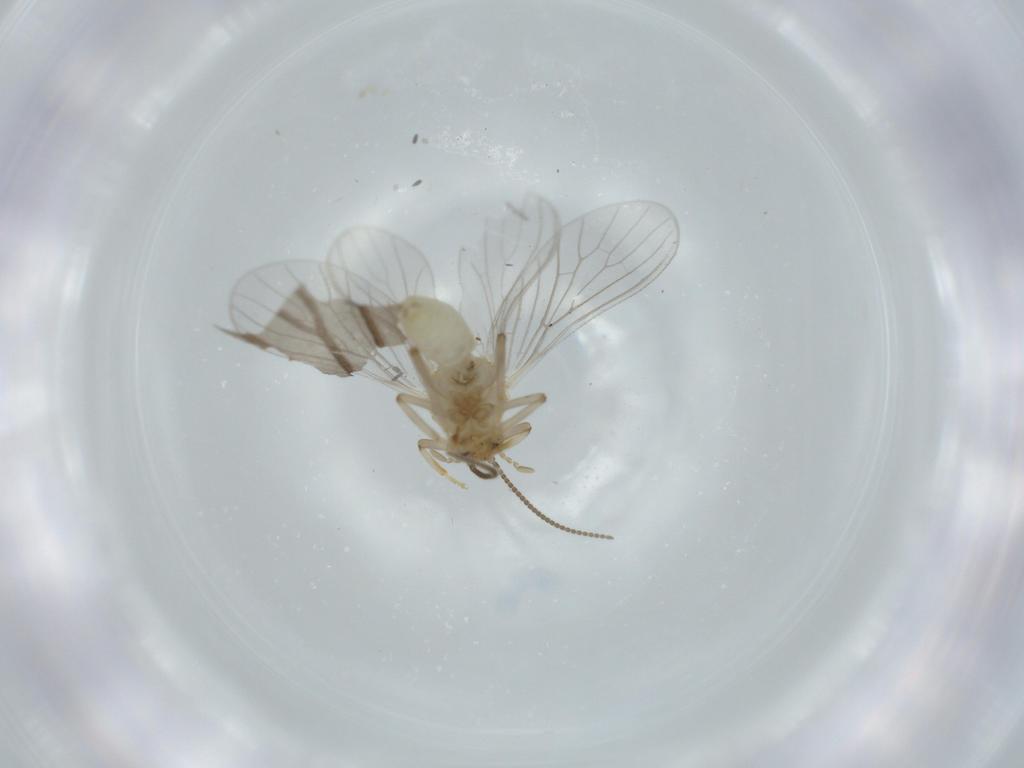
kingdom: Animalia
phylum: Arthropoda
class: Insecta
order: Neuroptera
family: Coniopterygidae
